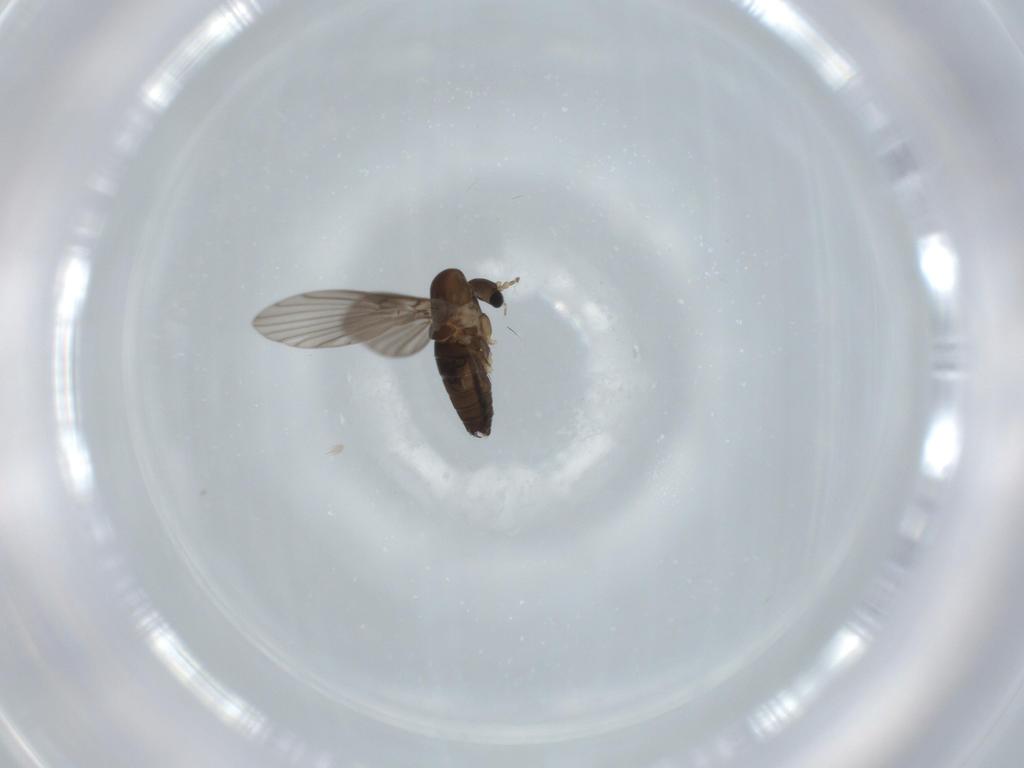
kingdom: Animalia
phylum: Arthropoda
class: Insecta
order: Diptera
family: Psychodidae
